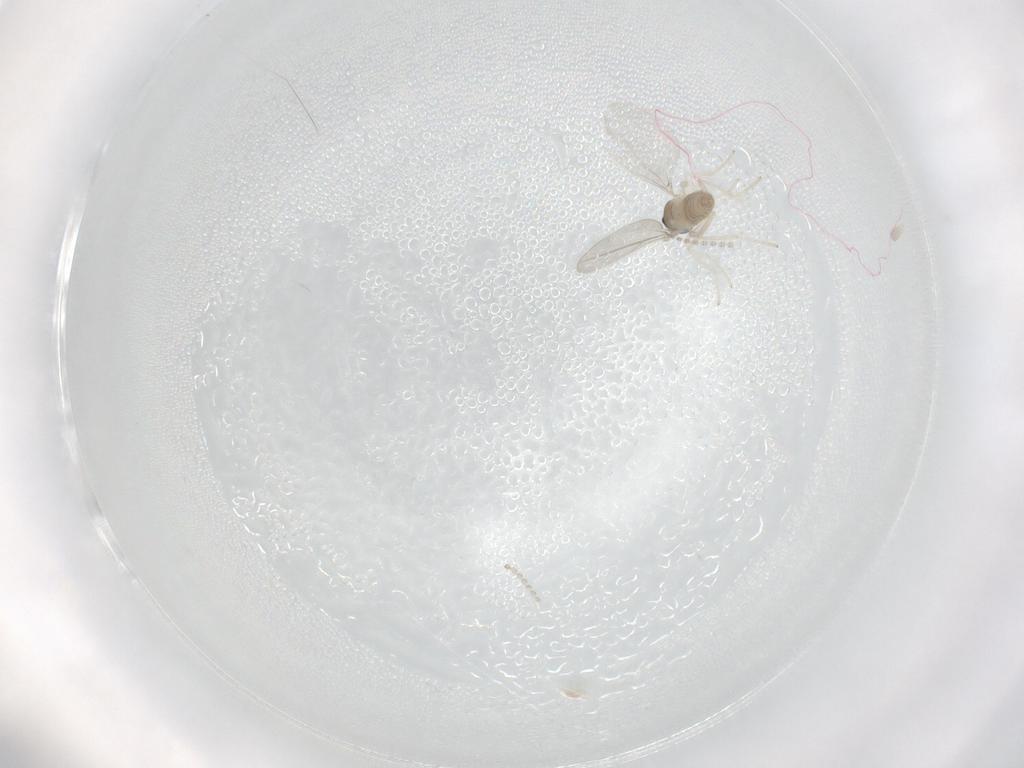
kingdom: Animalia
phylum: Arthropoda
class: Insecta
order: Diptera
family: Cecidomyiidae
